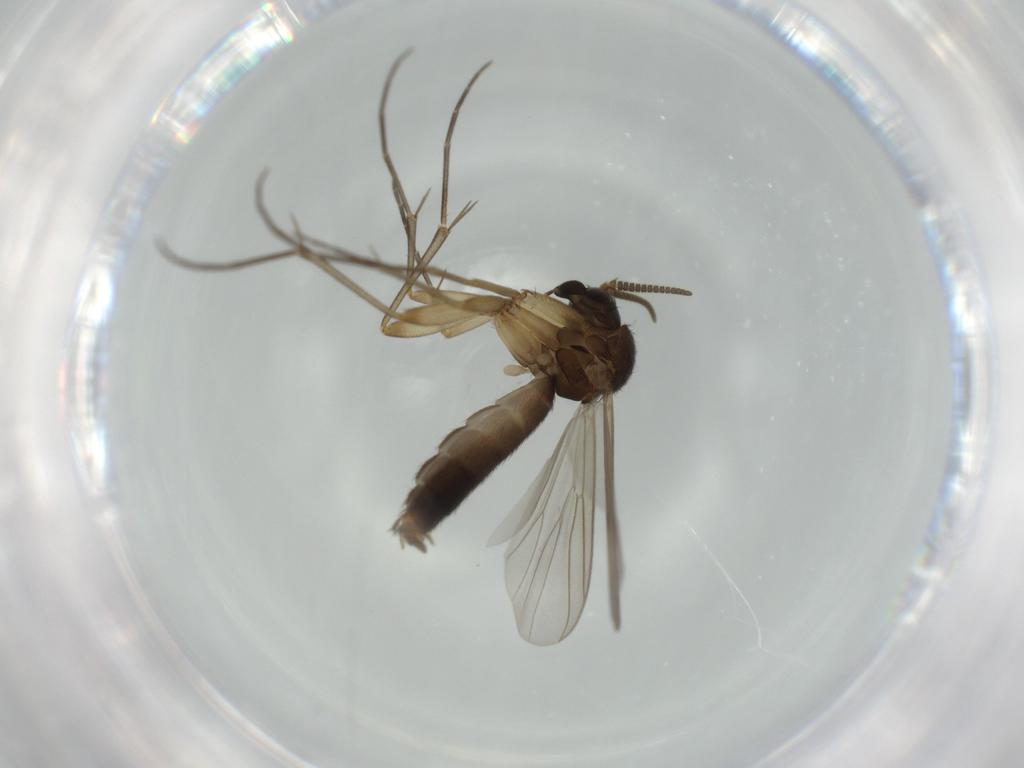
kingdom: Animalia
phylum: Arthropoda
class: Insecta
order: Diptera
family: Mycetophilidae
